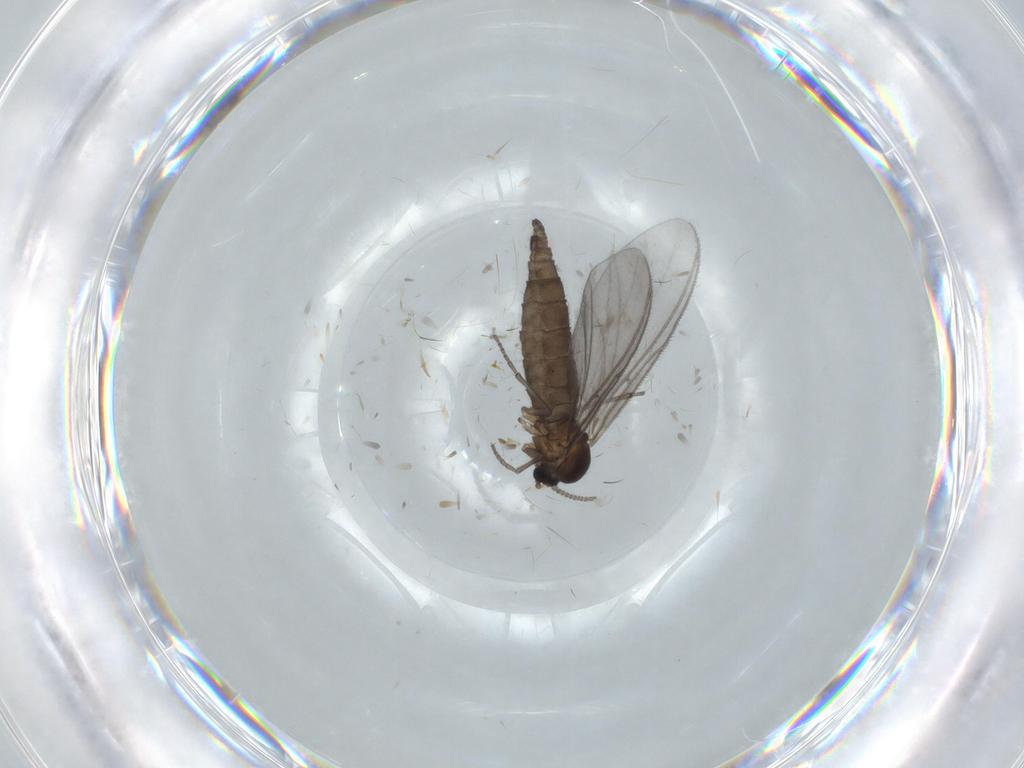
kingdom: Animalia
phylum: Arthropoda
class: Insecta
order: Diptera
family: Sciaridae
